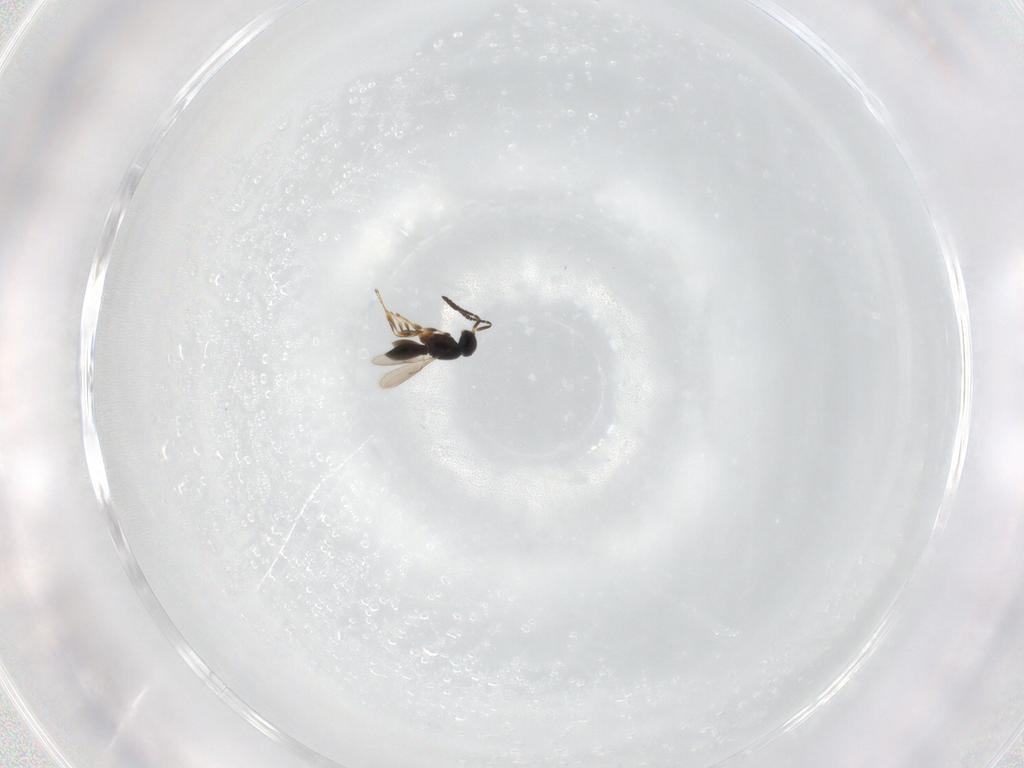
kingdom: Animalia
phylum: Arthropoda
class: Insecta
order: Hymenoptera
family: Scelionidae
